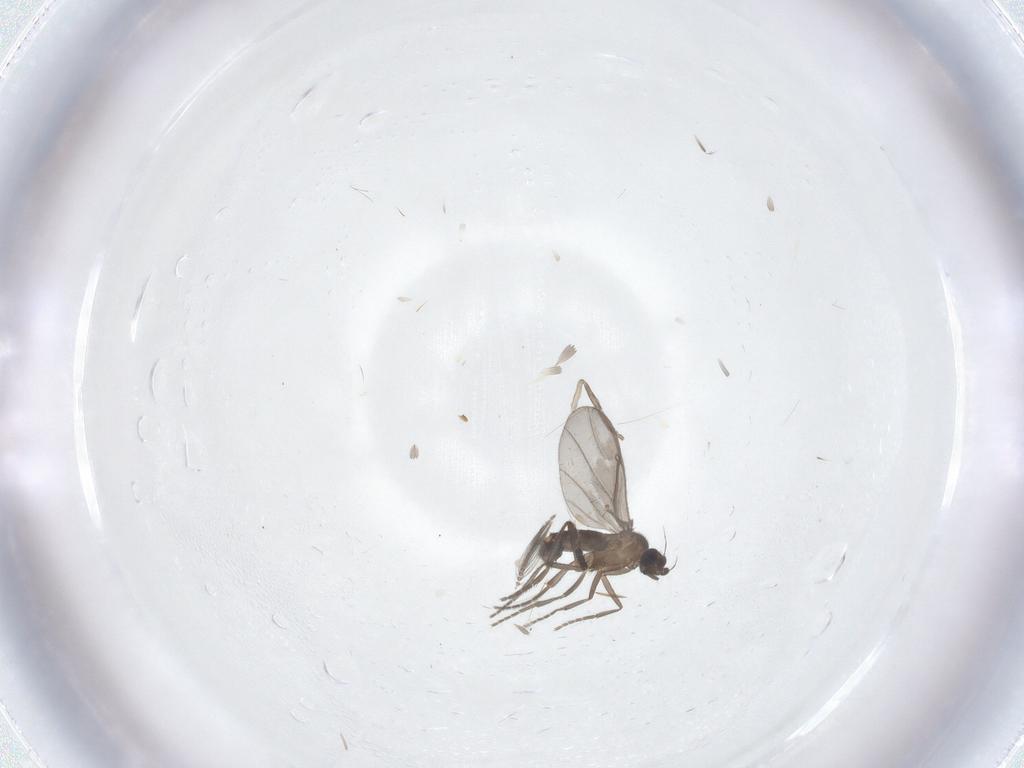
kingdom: Animalia
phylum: Arthropoda
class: Insecta
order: Diptera
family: Phoridae
